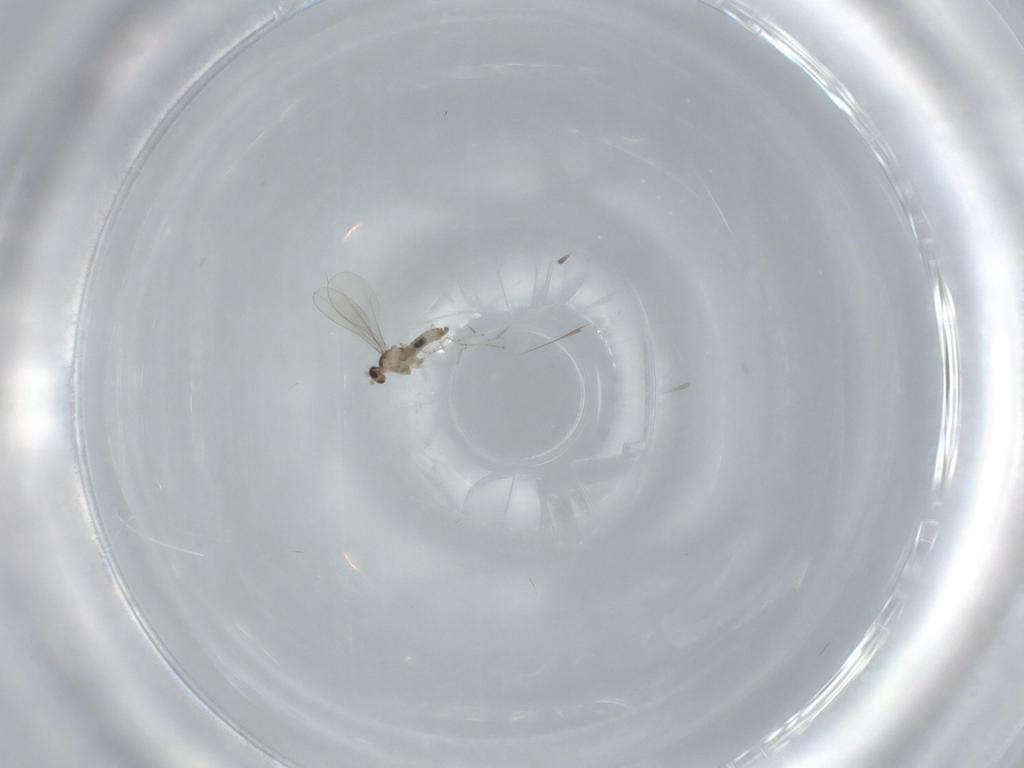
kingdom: Animalia
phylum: Arthropoda
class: Insecta
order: Diptera
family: Cecidomyiidae
